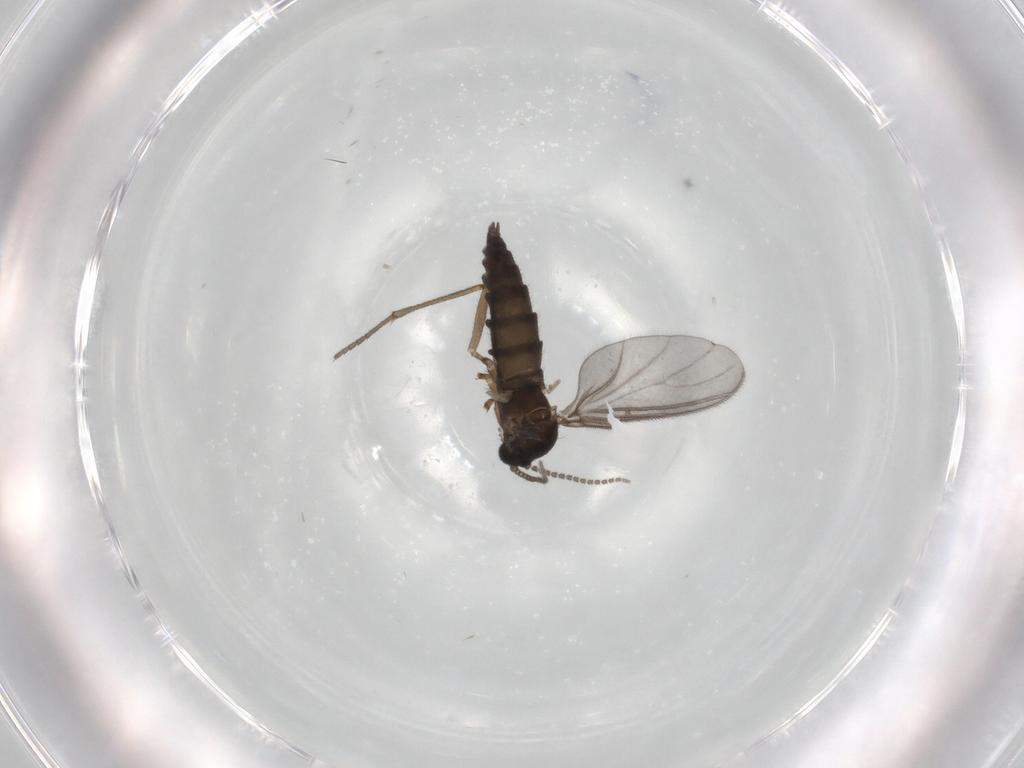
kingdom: Animalia
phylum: Arthropoda
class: Insecta
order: Diptera
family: Sciaridae
